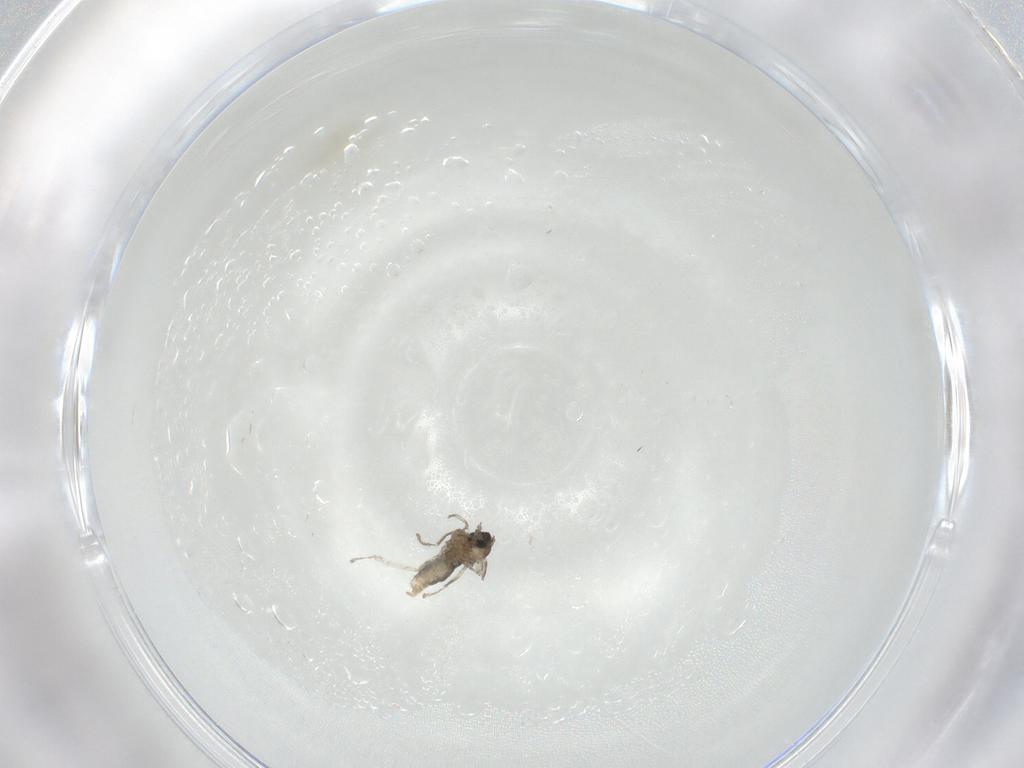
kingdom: Animalia
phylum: Arthropoda
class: Insecta
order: Diptera
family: Cecidomyiidae
